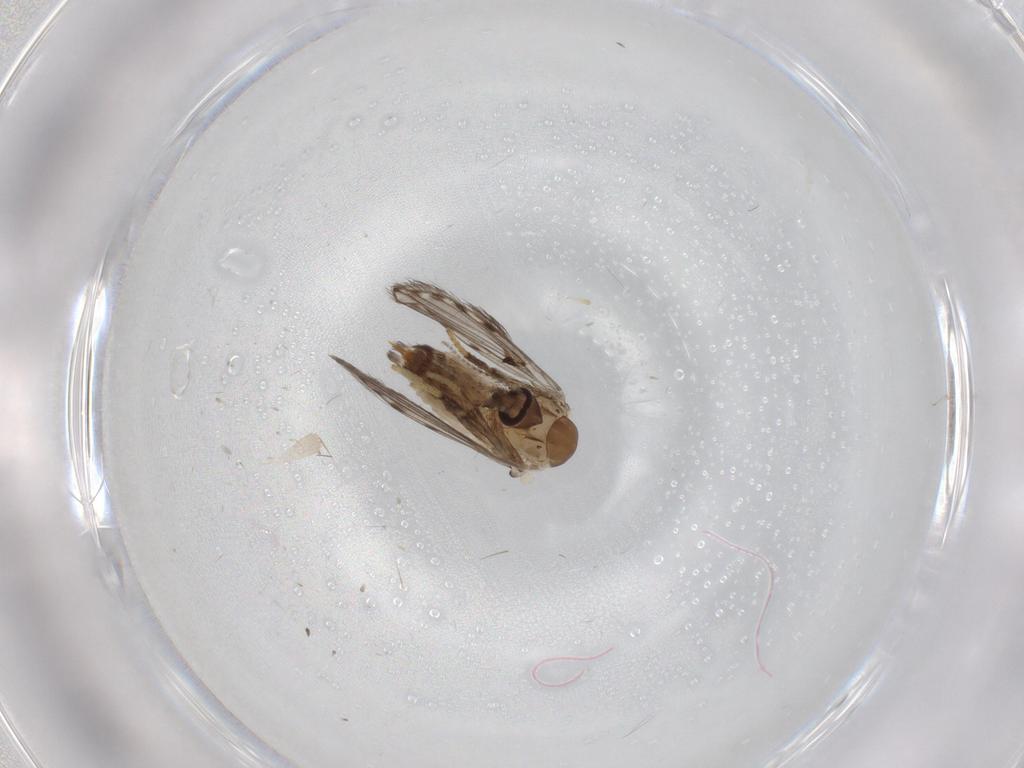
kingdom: Animalia
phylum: Arthropoda
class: Insecta
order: Diptera
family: Psychodidae
